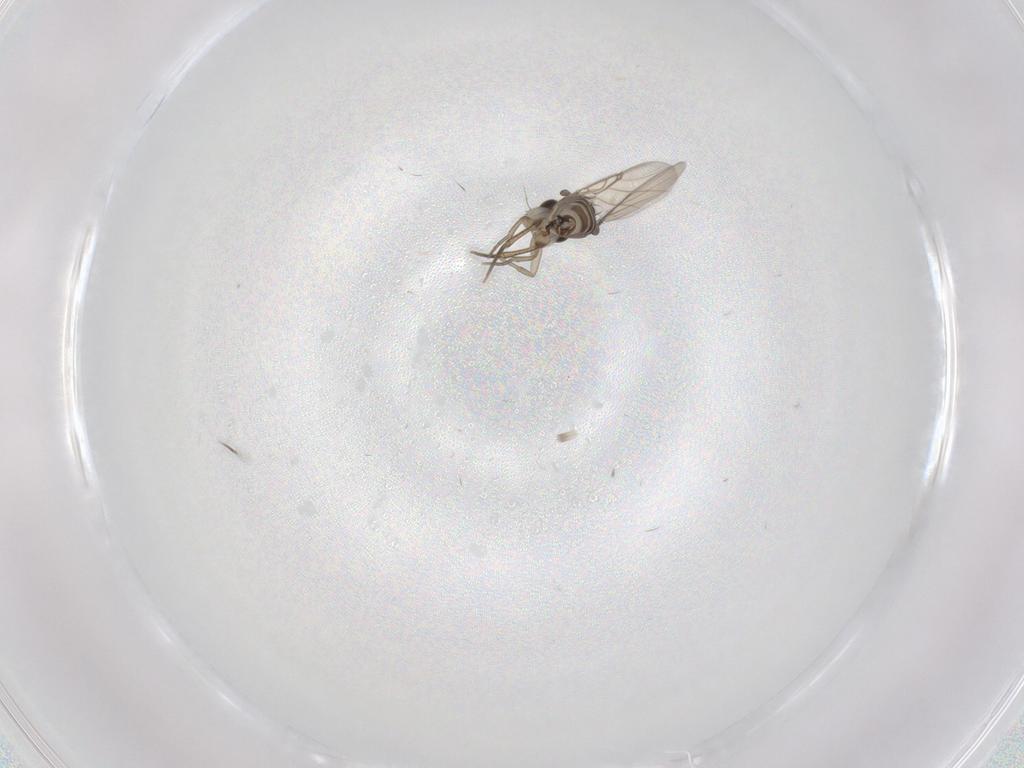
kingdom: Animalia
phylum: Arthropoda
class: Insecta
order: Diptera
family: Phoridae
